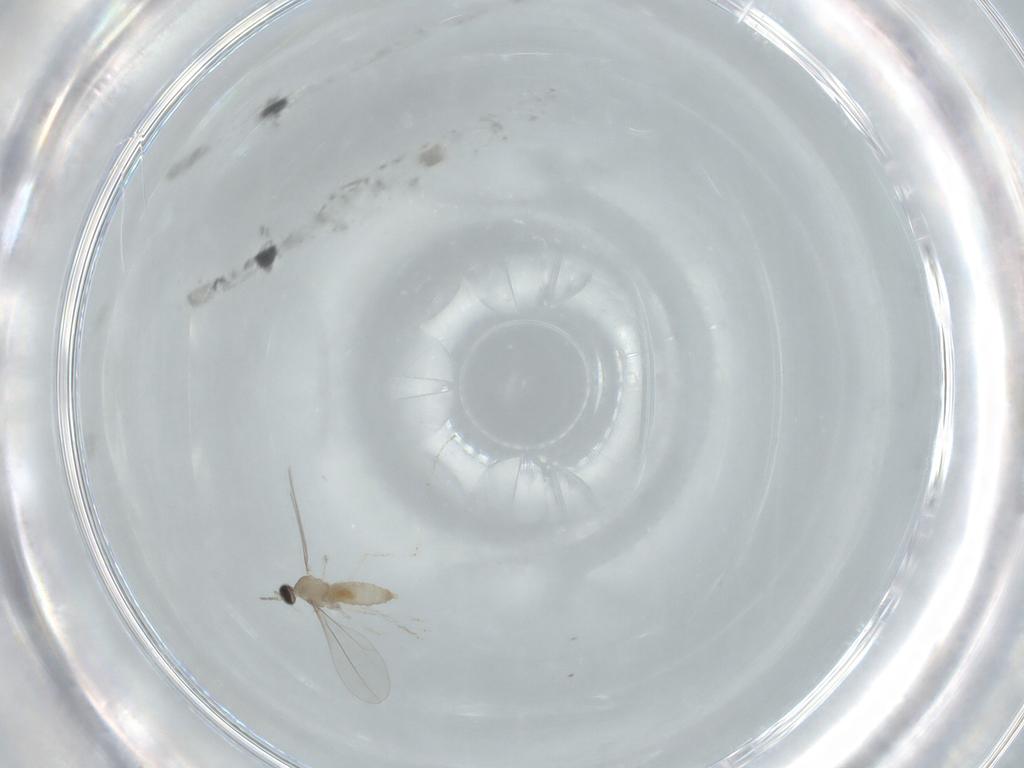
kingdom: Animalia
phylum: Arthropoda
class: Insecta
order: Diptera
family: Cecidomyiidae
